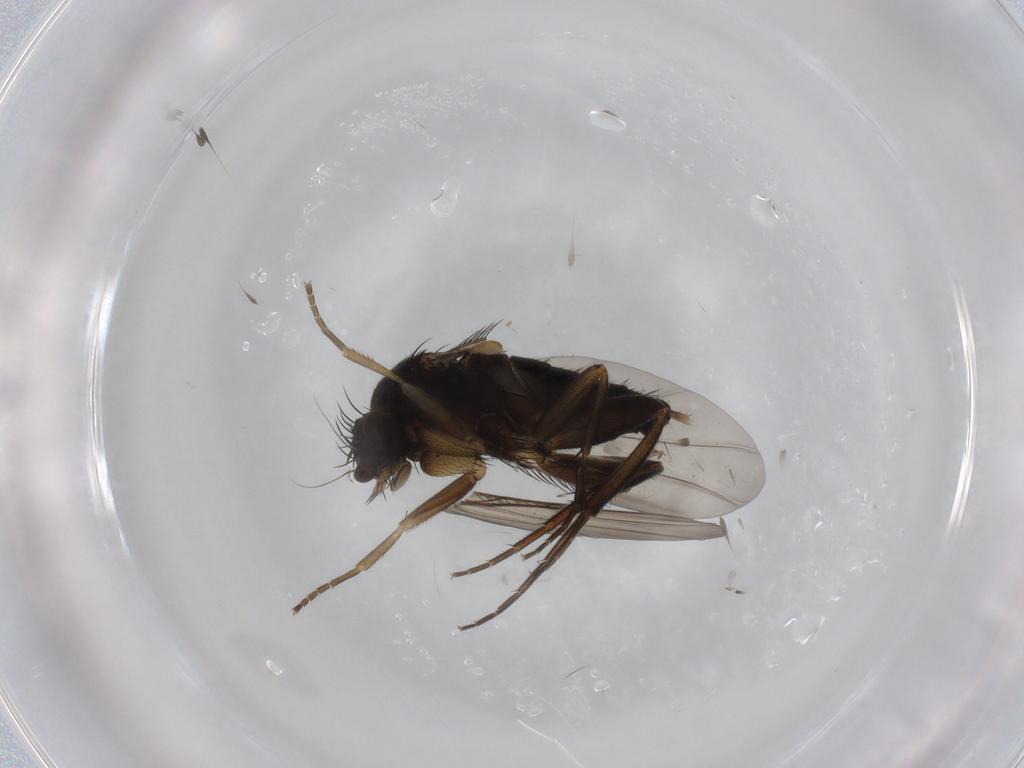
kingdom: Animalia
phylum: Arthropoda
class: Insecta
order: Diptera
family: Phoridae
